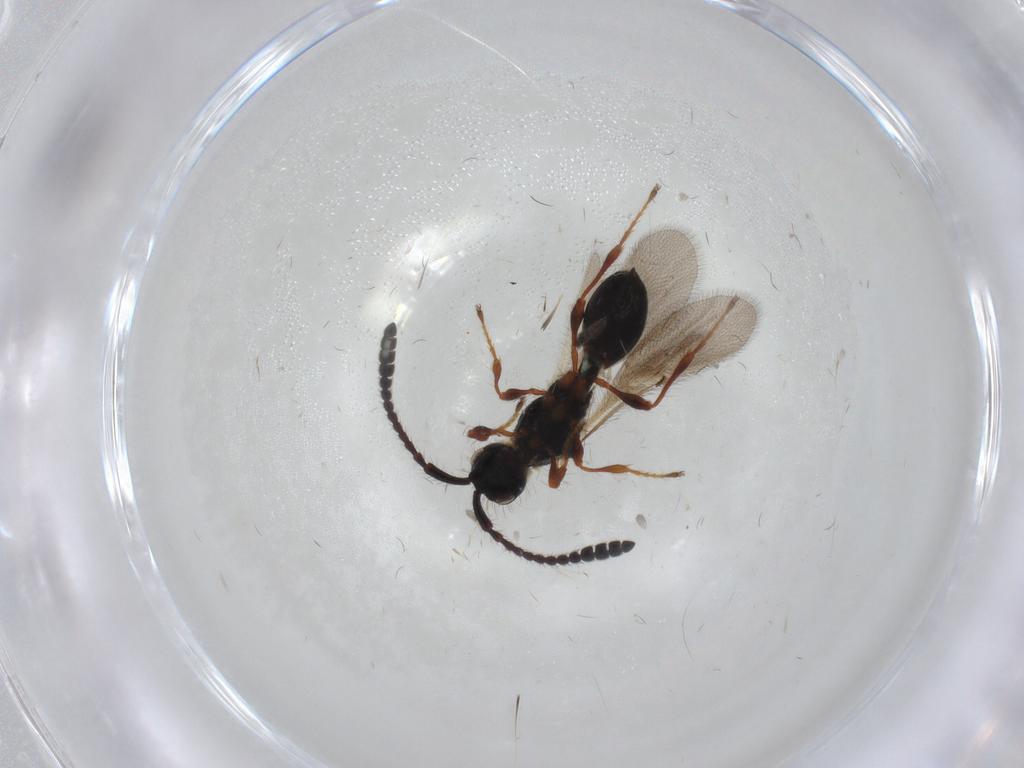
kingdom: Animalia
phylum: Arthropoda
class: Insecta
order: Hymenoptera
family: Diapriidae
